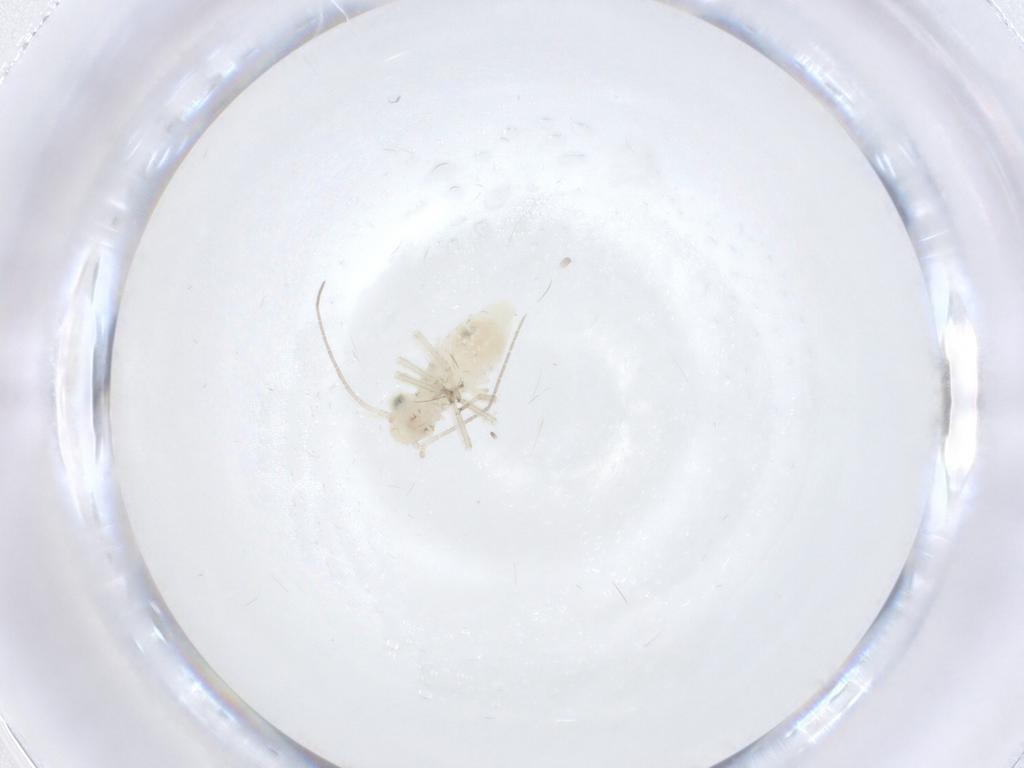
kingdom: Animalia
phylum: Arthropoda
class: Insecta
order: Psocodea
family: Caeciliusidae
